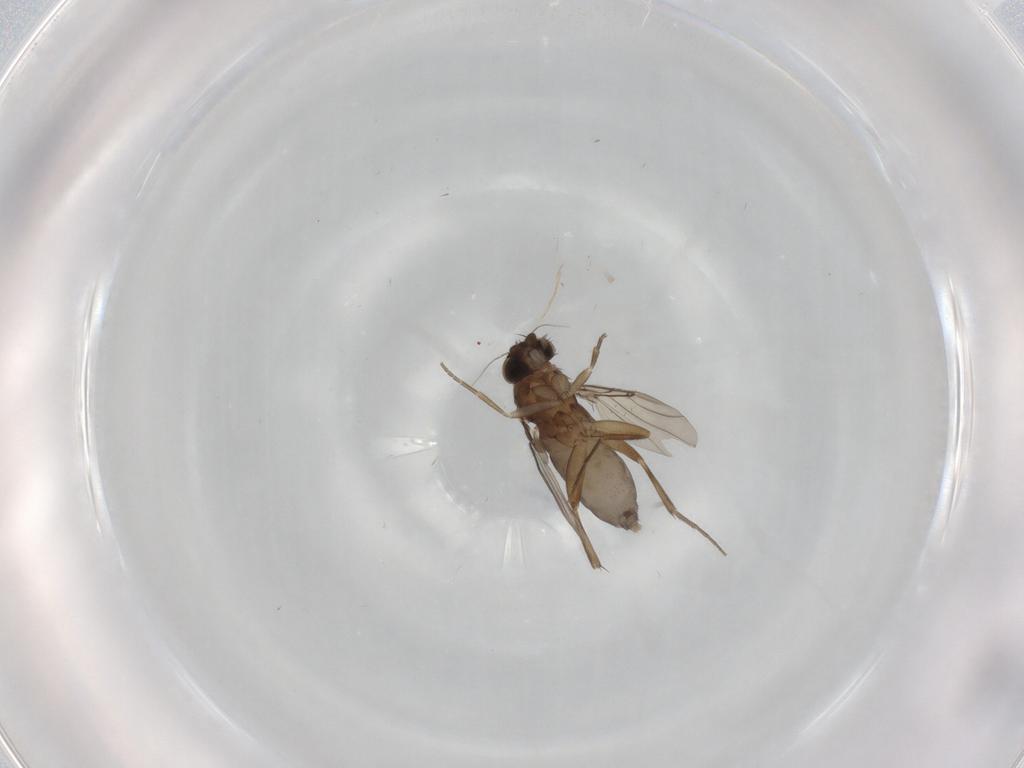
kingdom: Animalia
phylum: Arthropoda
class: Insecta
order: Diptera
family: Phoridae
